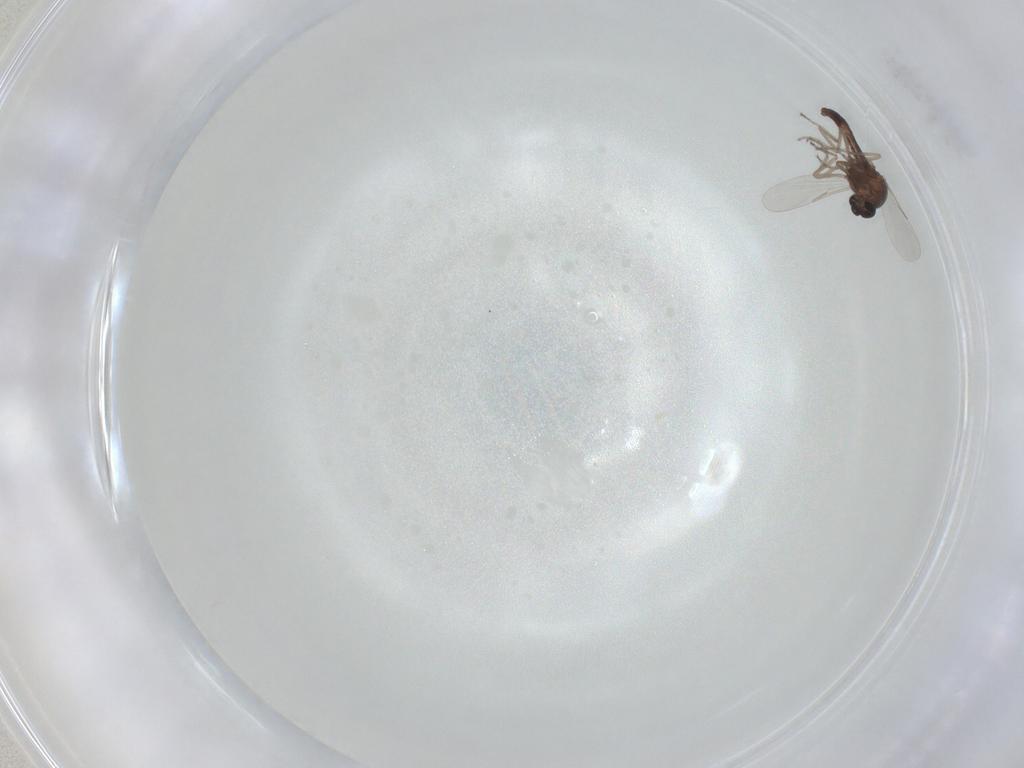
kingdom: Animalia
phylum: Arthropoda
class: Insecta
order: Diptera
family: Ceratopogonidae
